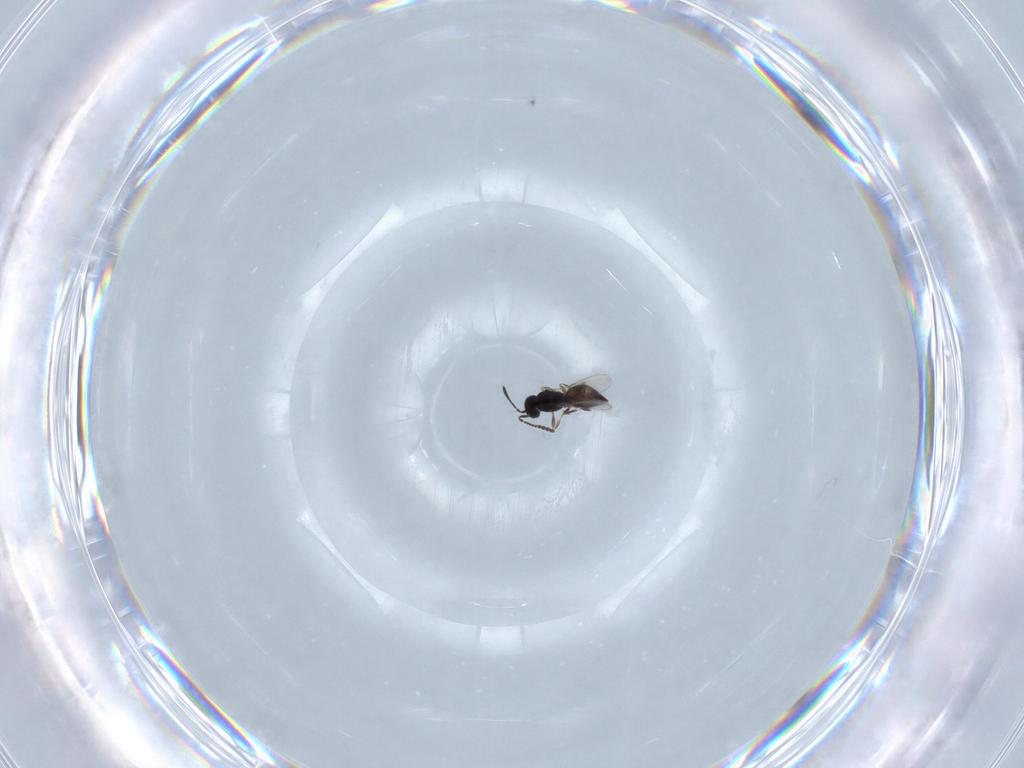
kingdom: Animalia
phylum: Arthropoda
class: Insecta
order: Hymenoptera
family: Scelionidae
